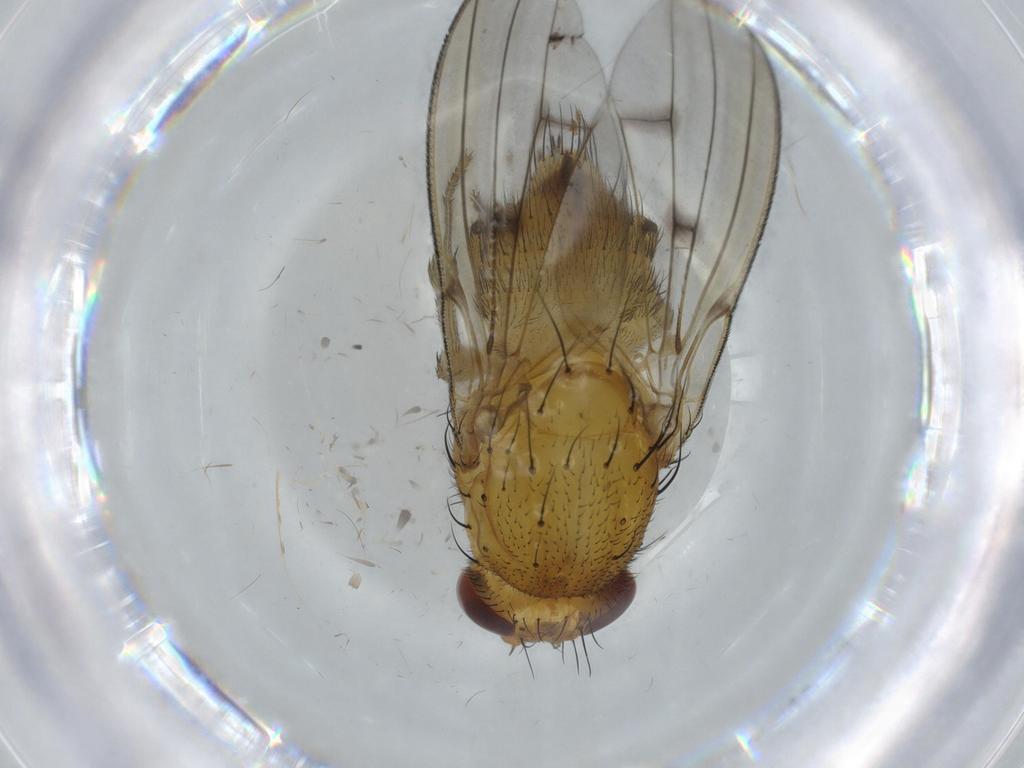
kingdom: Animalia
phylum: Arthropoda
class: Insecta
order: Diptera
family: Psychodidae
